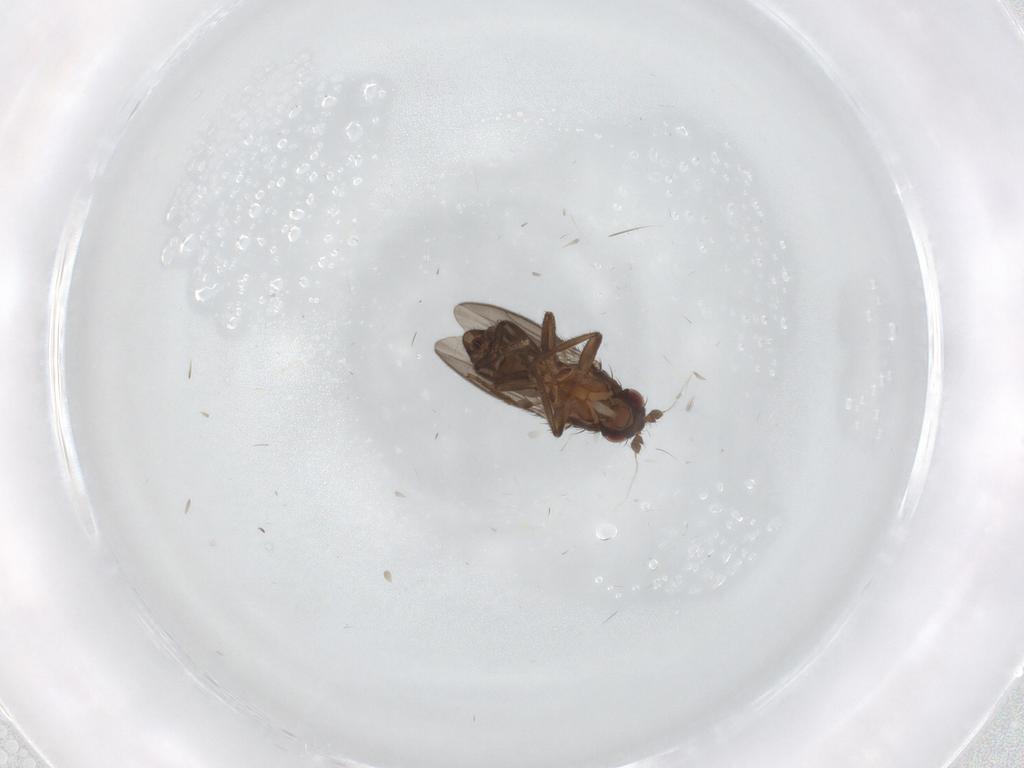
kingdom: Animalia
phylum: Arthropoda
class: Insecta
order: Diptera
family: Sphaeroceridae
